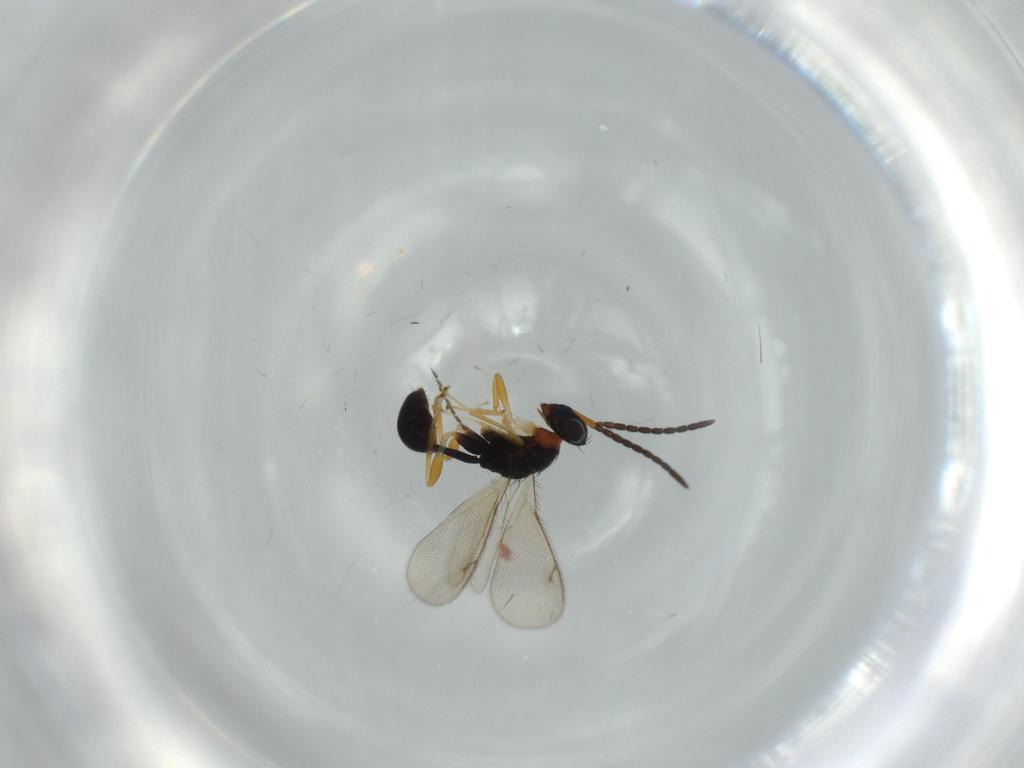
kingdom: Animalia
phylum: Arthropoda
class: Insecta
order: Hymenoptera
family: Diparidae
